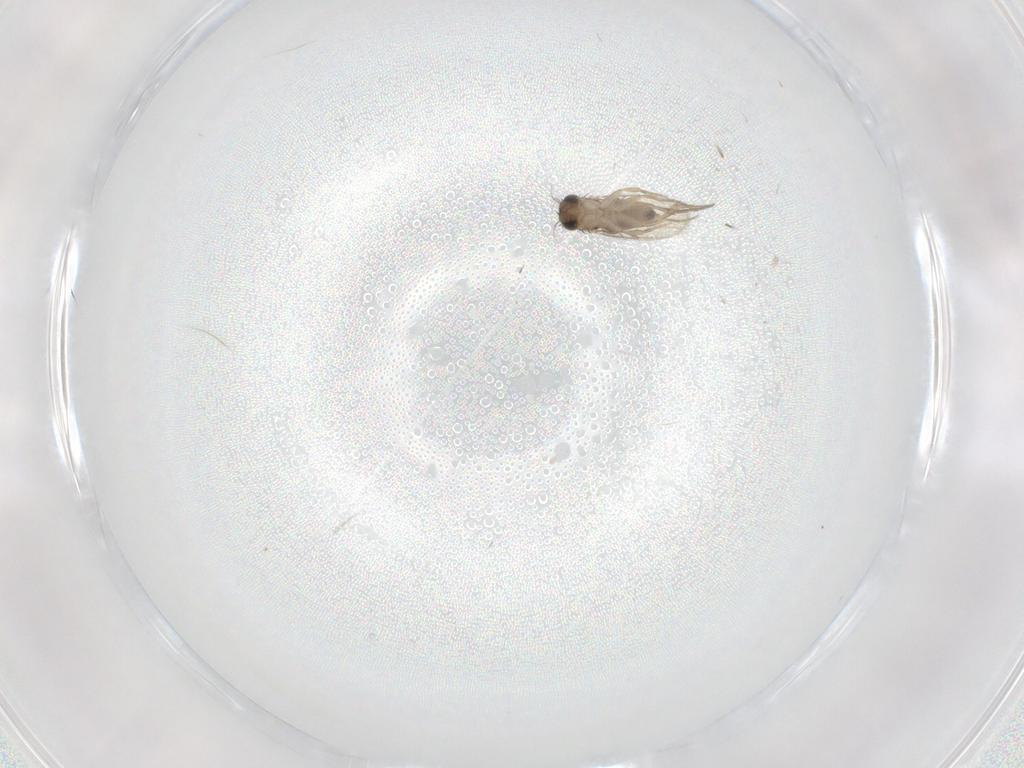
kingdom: Animalia
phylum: Arthropoda
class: Insecta
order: Diptera
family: Phoridae
